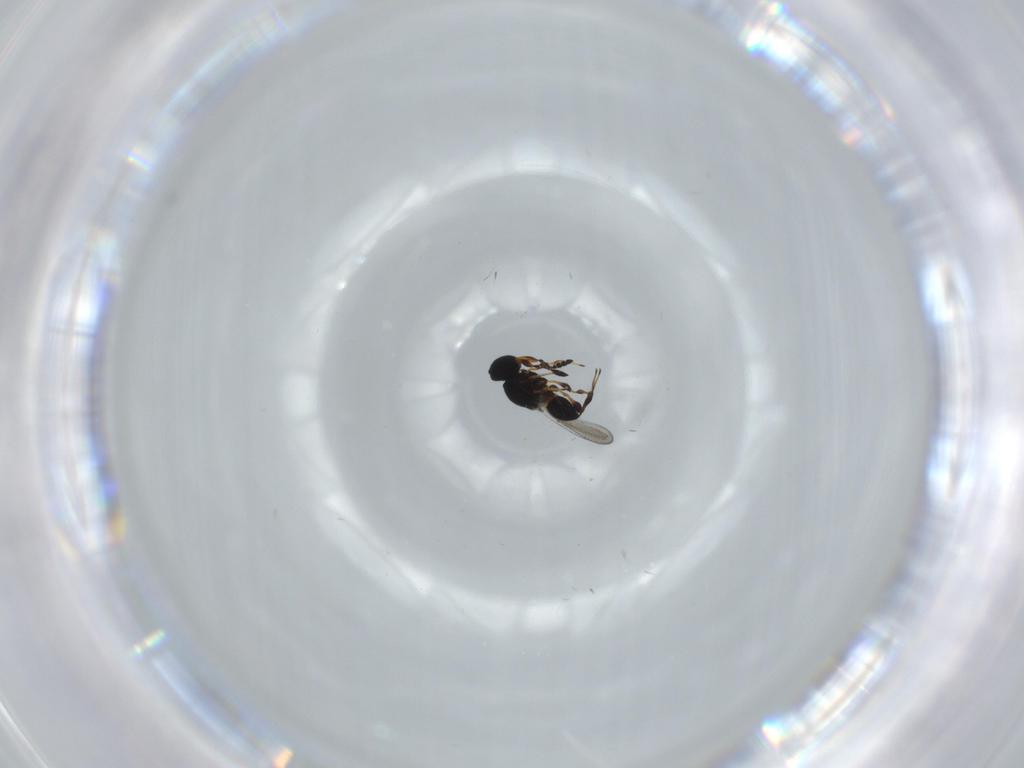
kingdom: Animalia
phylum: Arthropoda
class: Insecta
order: Hymenoptera
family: Platygastridae
